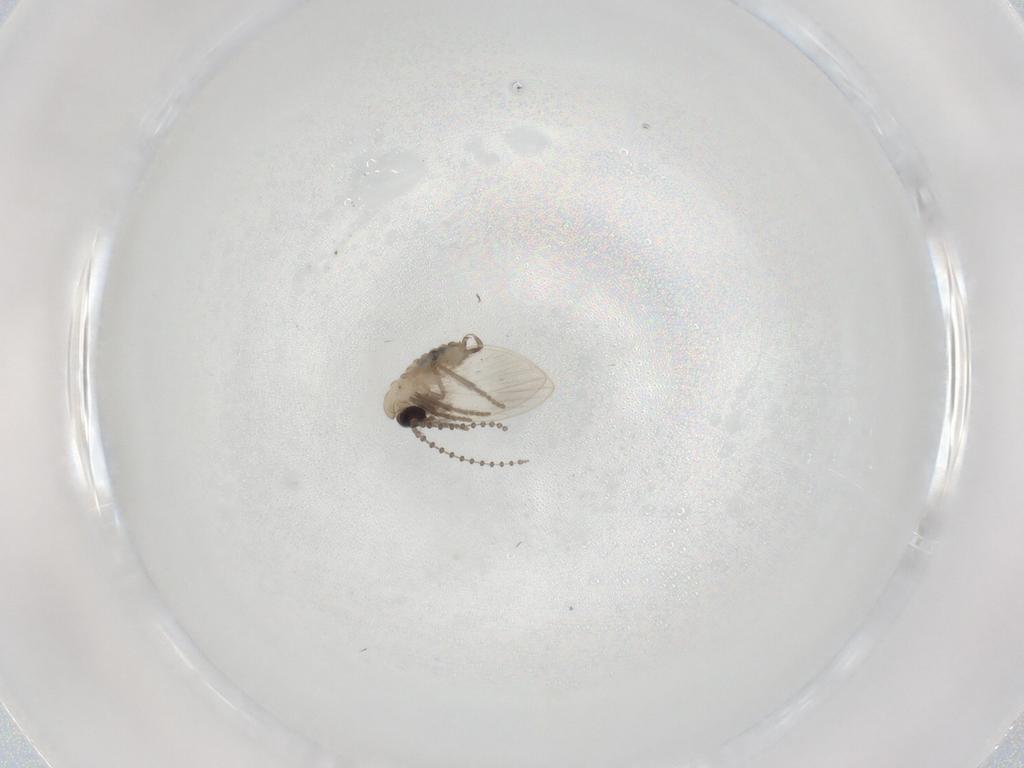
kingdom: Animalia
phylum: Arthropoda
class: Insecta
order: Diptera
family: Psychodidae
